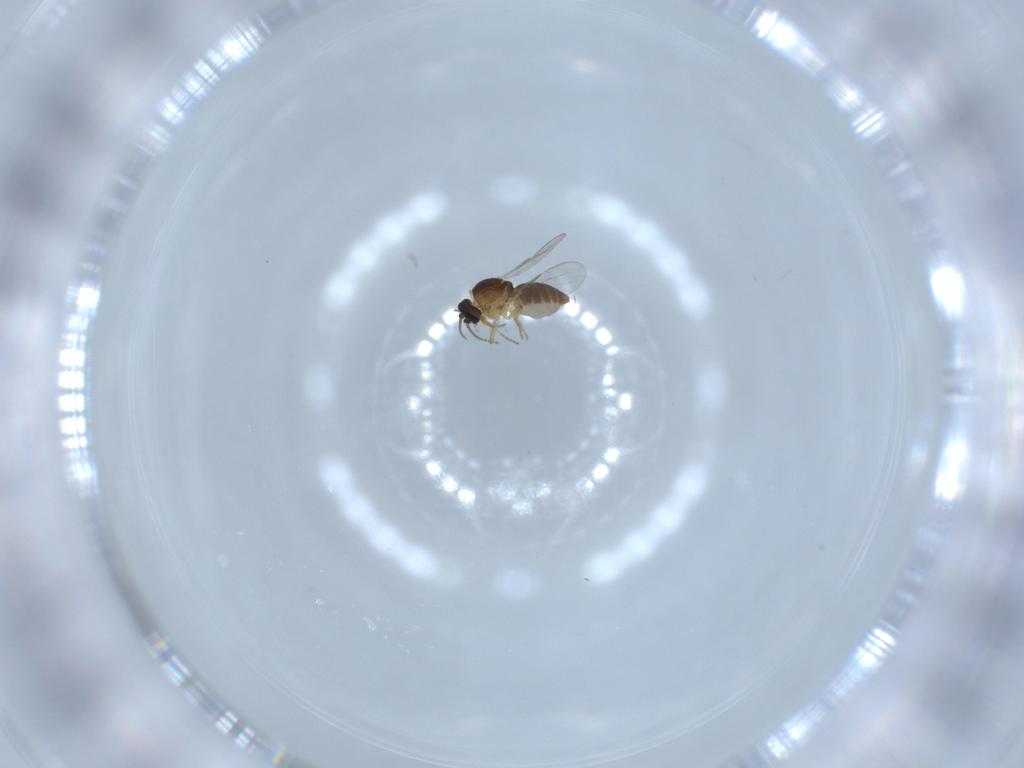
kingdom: Animalia
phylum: Arthropoda
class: Insecta
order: Diptera
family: Ceratopogonidae
